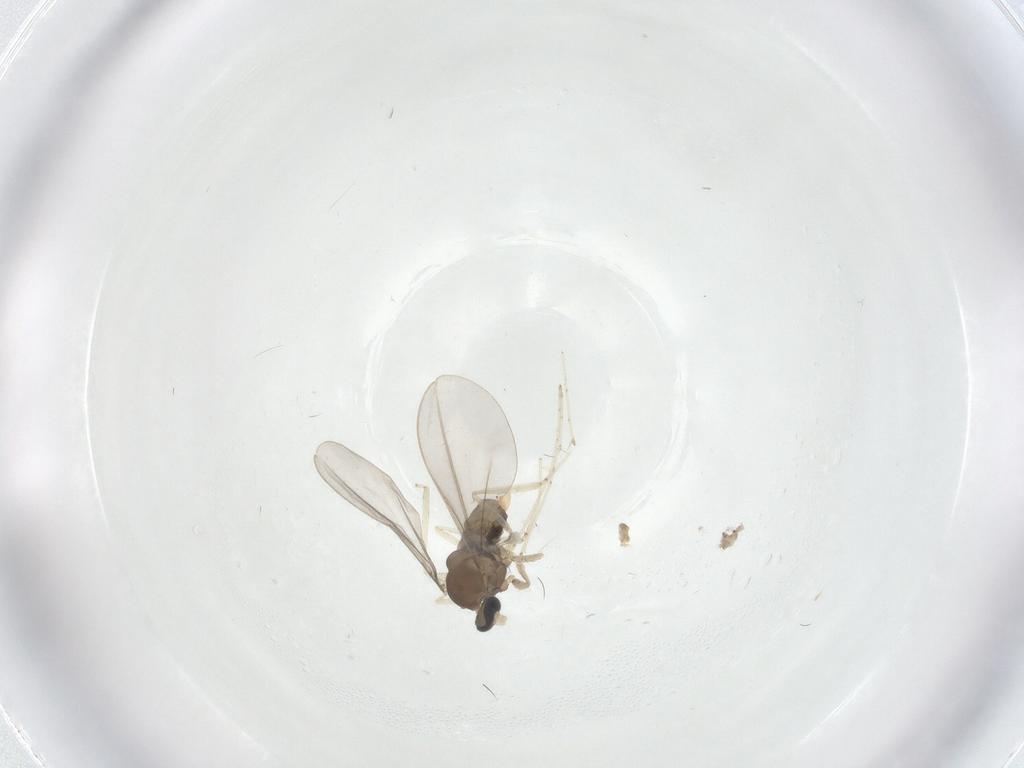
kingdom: Animalia
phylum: Arthropoda
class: Insecta
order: Diptera
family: Cecidomyiidae
